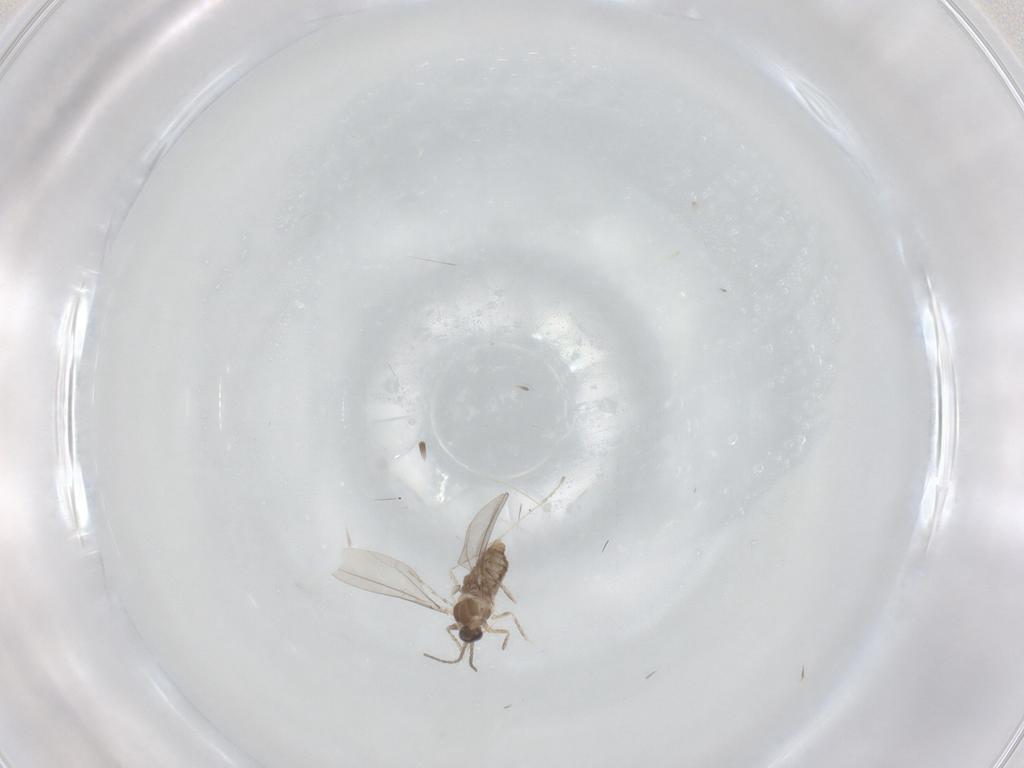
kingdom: Animalia
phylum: Arthropoda
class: Insecta
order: Diptera
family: Cecidomyiidae
